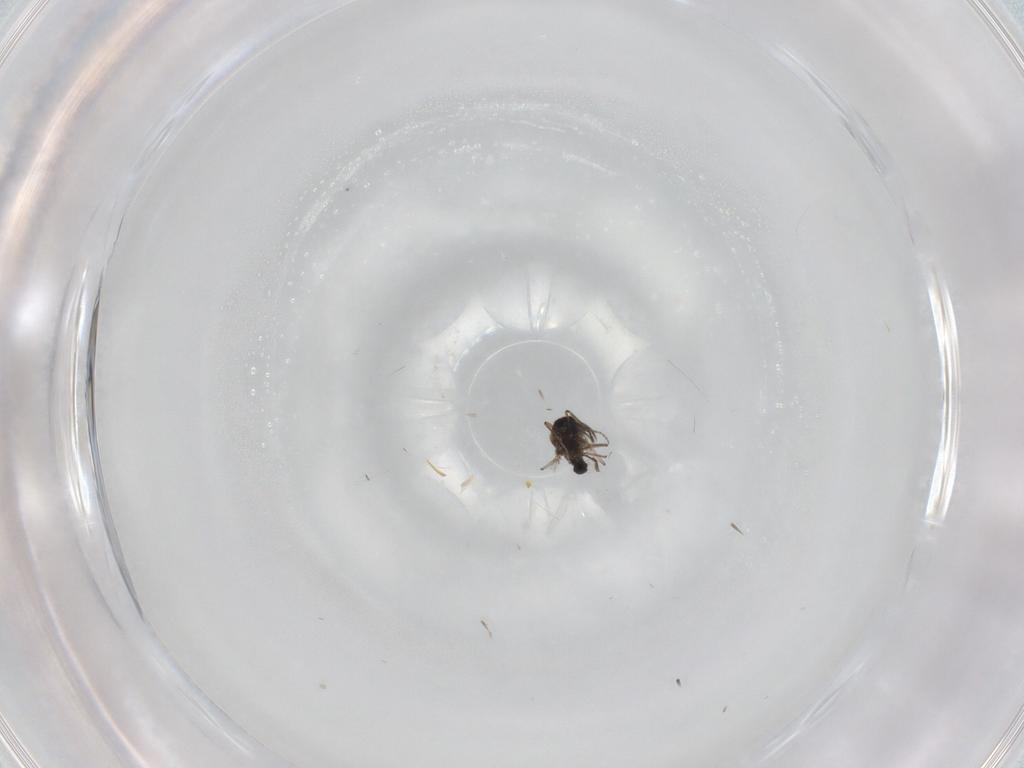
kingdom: Animalia
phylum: Arthropoda
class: Insecta
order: Diptera
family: Ceratopogonidae
